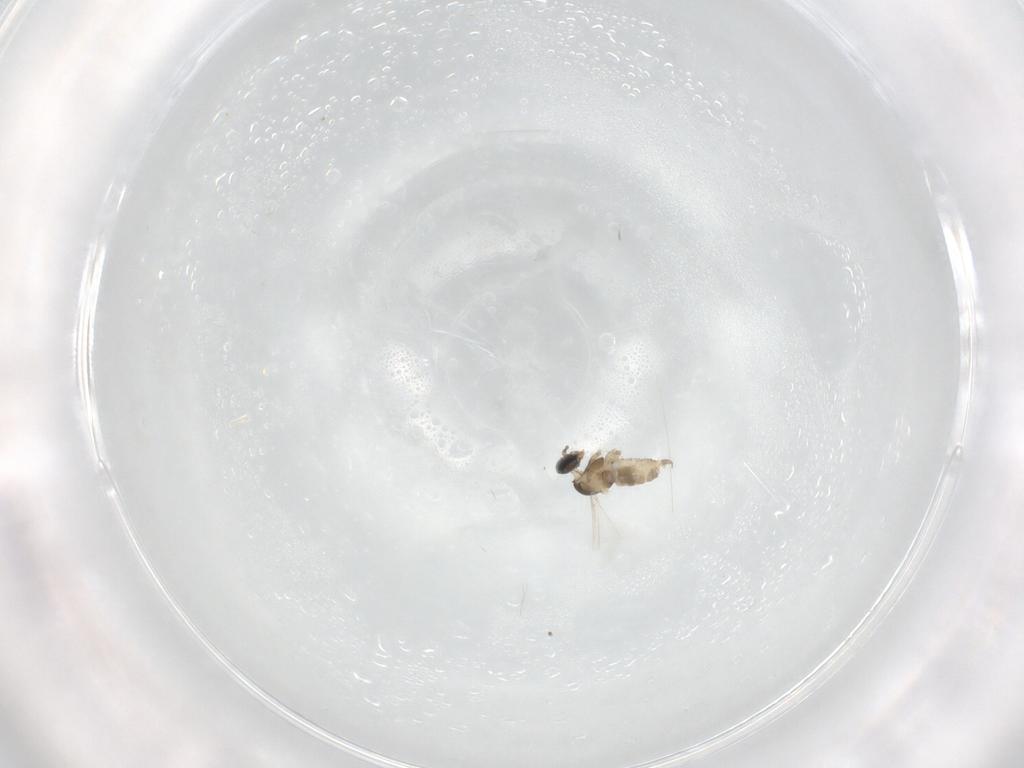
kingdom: Animalia
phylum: Arthropoda
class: Insecta
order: Diptera
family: Cecidomyiidae
